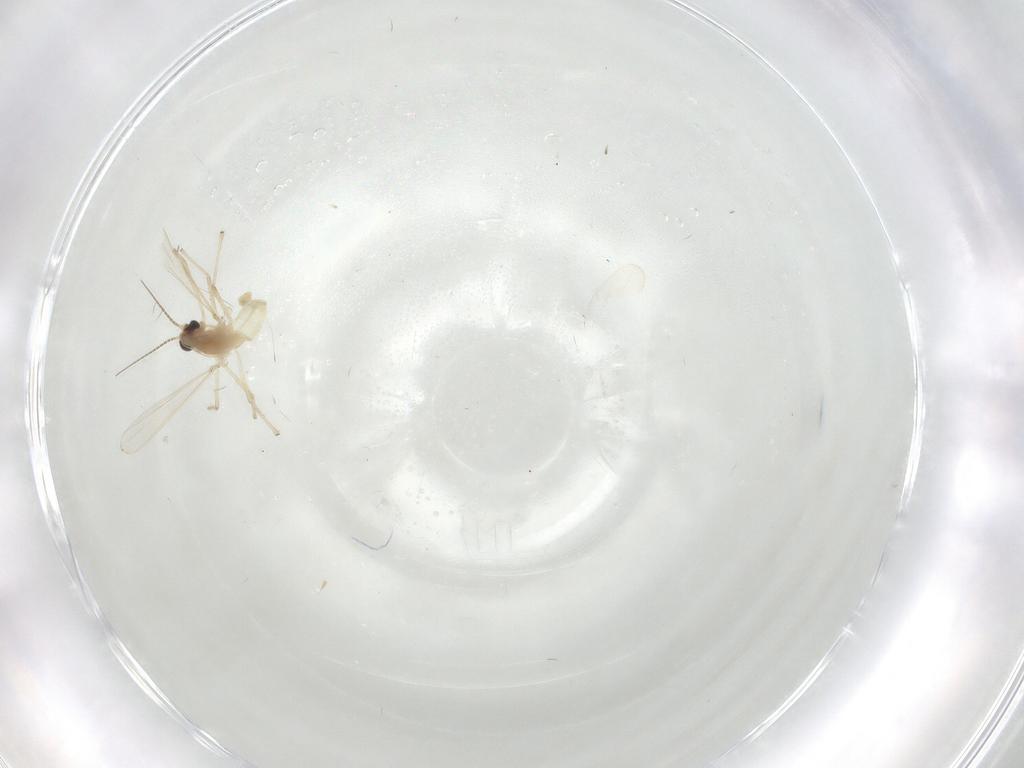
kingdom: Animalia
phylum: Arthropoda
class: Insecta
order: Diptera
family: Chironomidae
